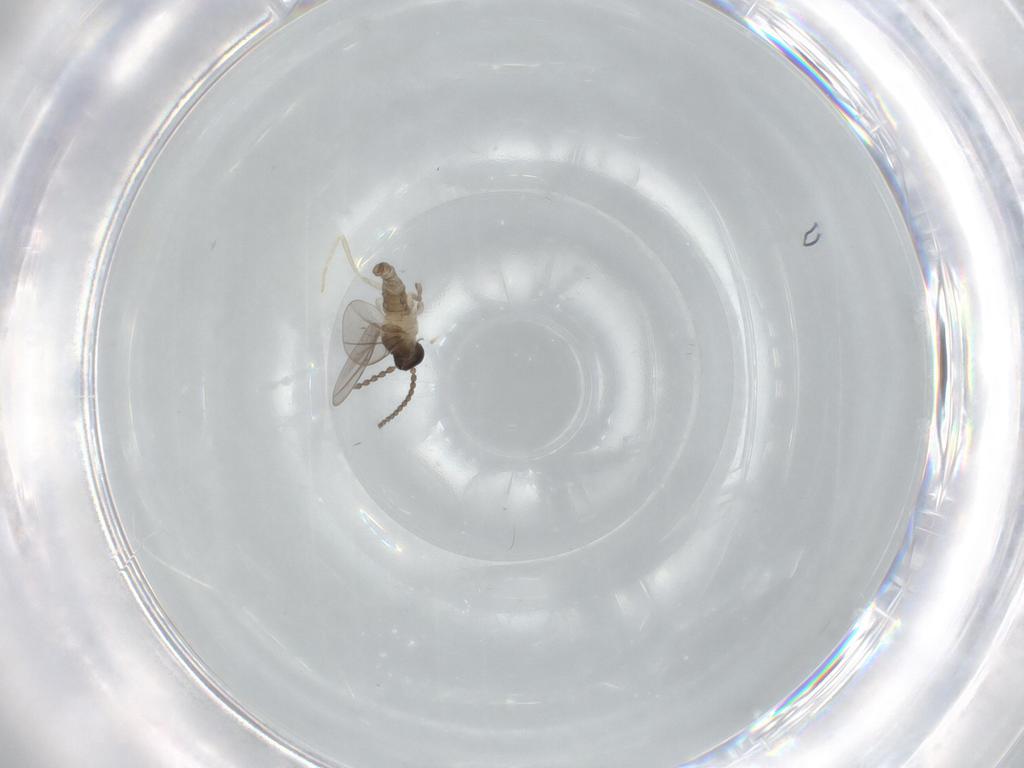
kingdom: Animalia
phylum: Arthropoda
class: Insecta
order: Diptera
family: Cecidomyiidae
